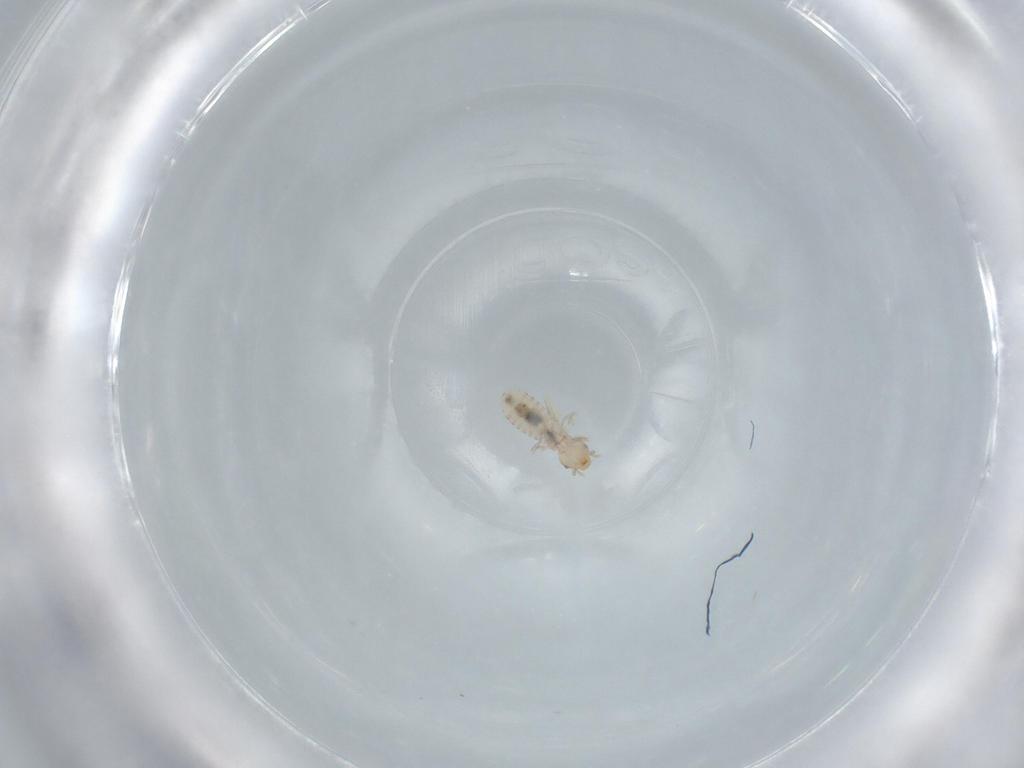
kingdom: Animalia
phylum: Arthropoda
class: Insecta
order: Psocodea
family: Liposcelididae
